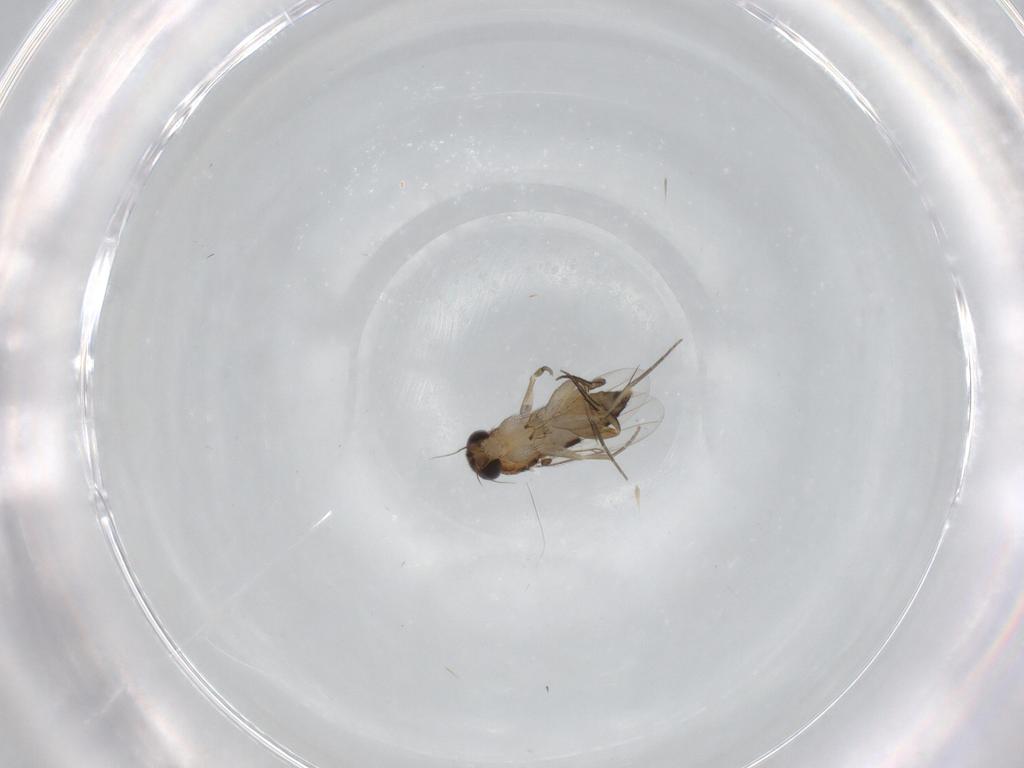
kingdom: Animalia
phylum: Arthropoda
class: Insecta
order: Diptera
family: Phoridae
